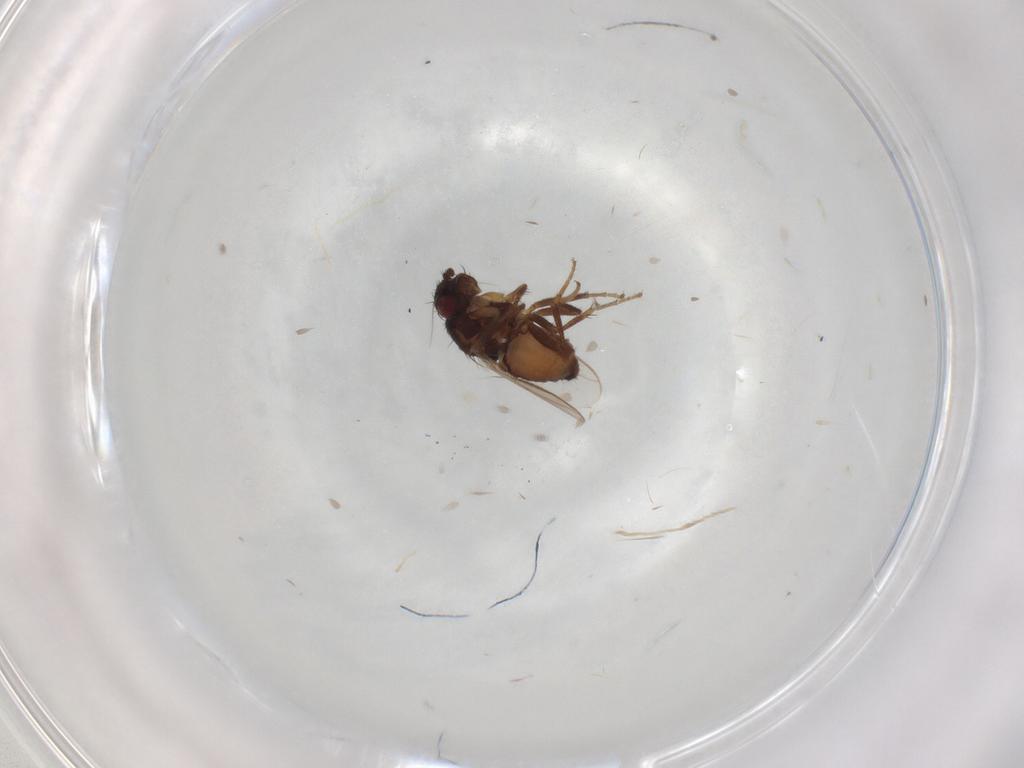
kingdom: Animalia
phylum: Arthropoda
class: Insecta
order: Diptera
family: Sphaeroceridae
